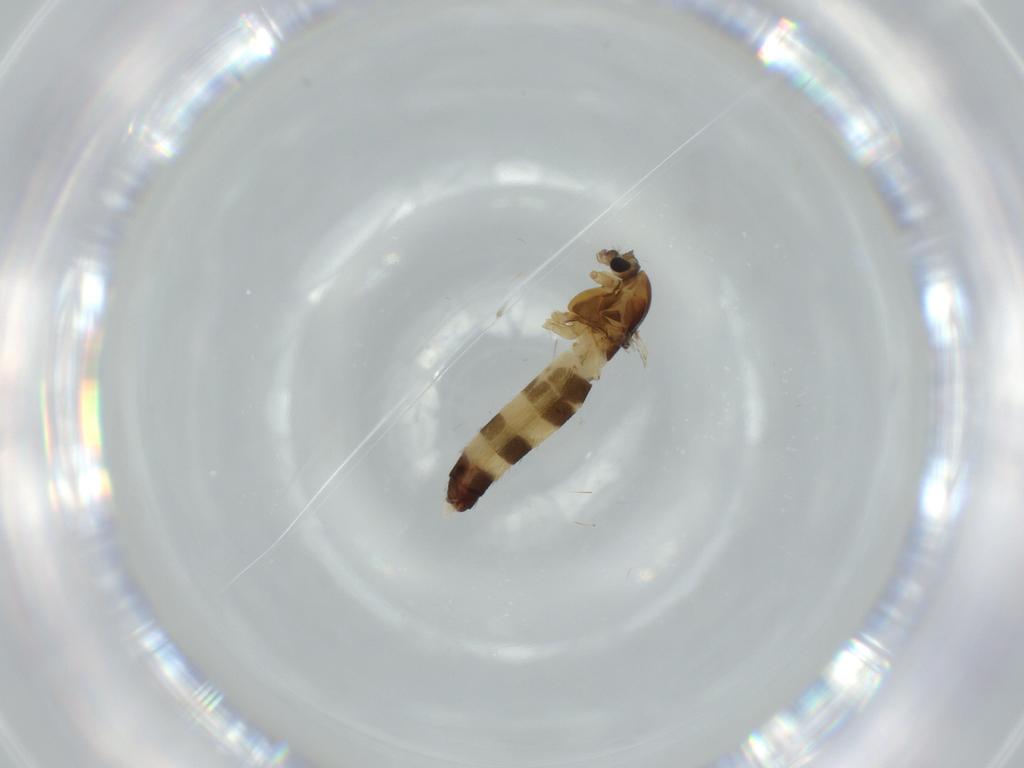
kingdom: Animalia
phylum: Arthropoda
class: Insecta
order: Diptera
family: Chironomidae
